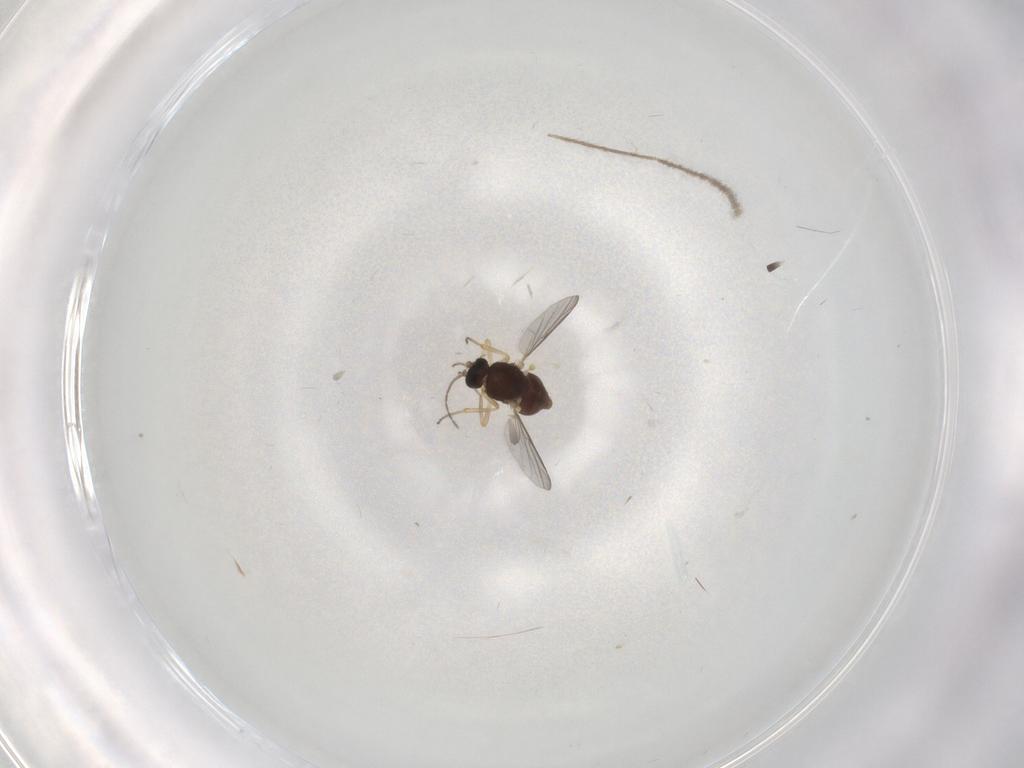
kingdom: Animalia
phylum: Arthropoda
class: Insecta
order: Diptera
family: Ceratopogonidae
